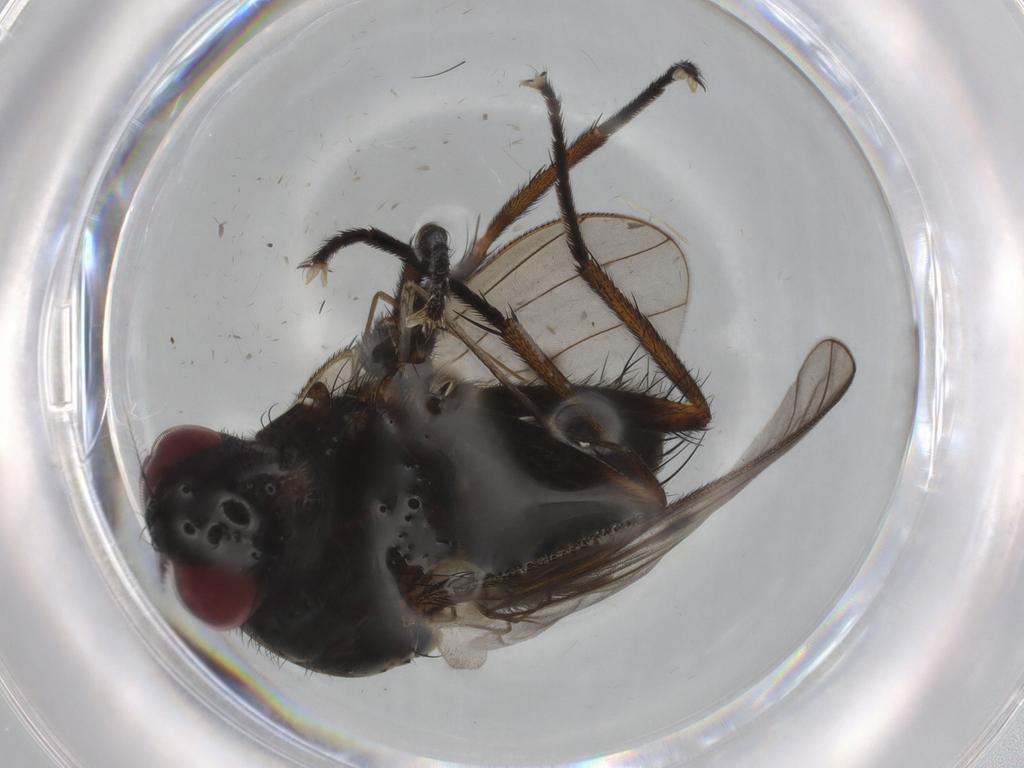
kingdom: Animalia
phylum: Arthropoda
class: Insecta
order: Diptera
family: Muscidae
